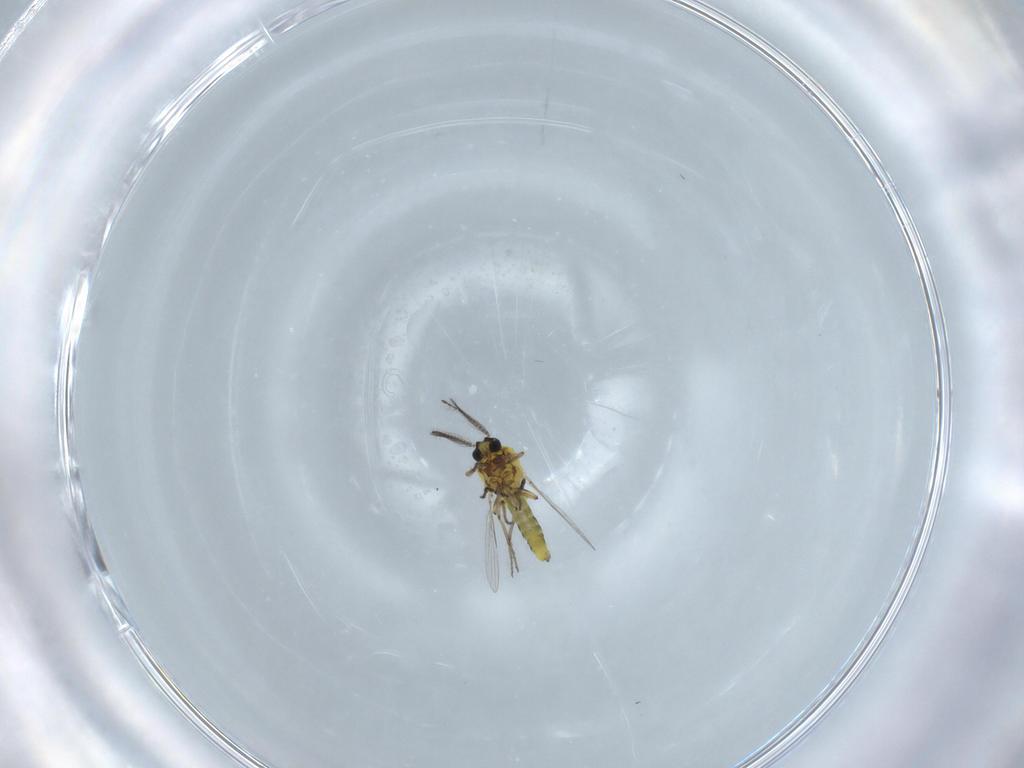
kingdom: Animalia
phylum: Arthropoda
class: Insecta
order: Diptera
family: Ceratopogonidae
